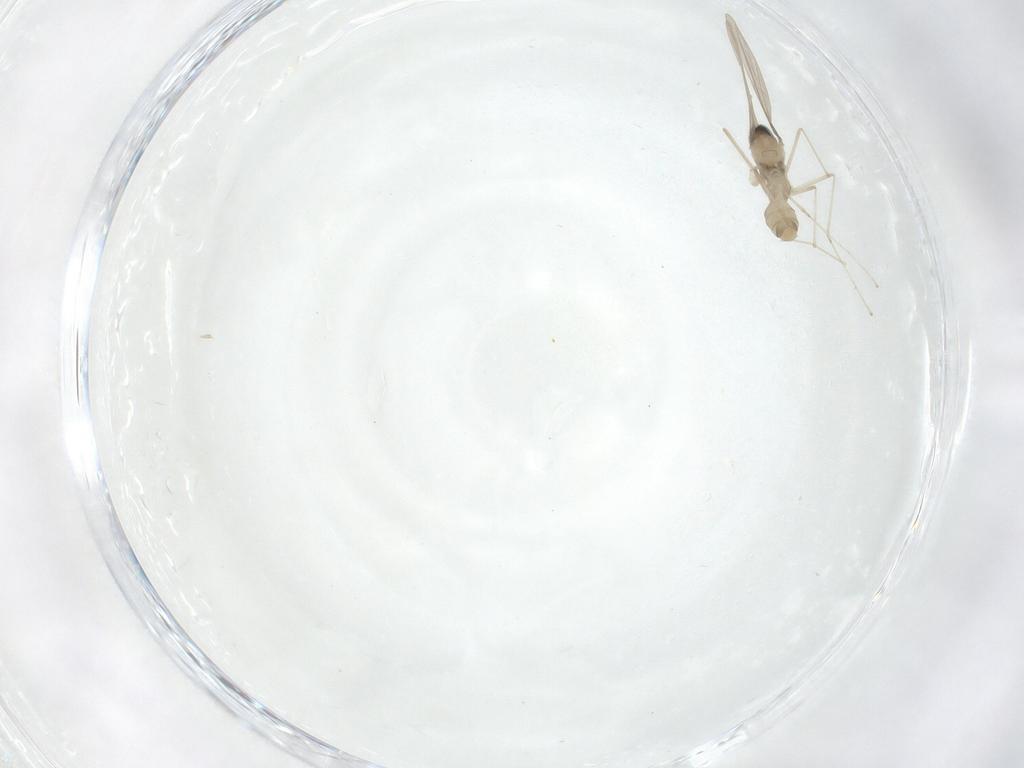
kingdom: Animalia
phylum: Arthropoda
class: Insecta
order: Diptera
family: Cecidomyiidae
